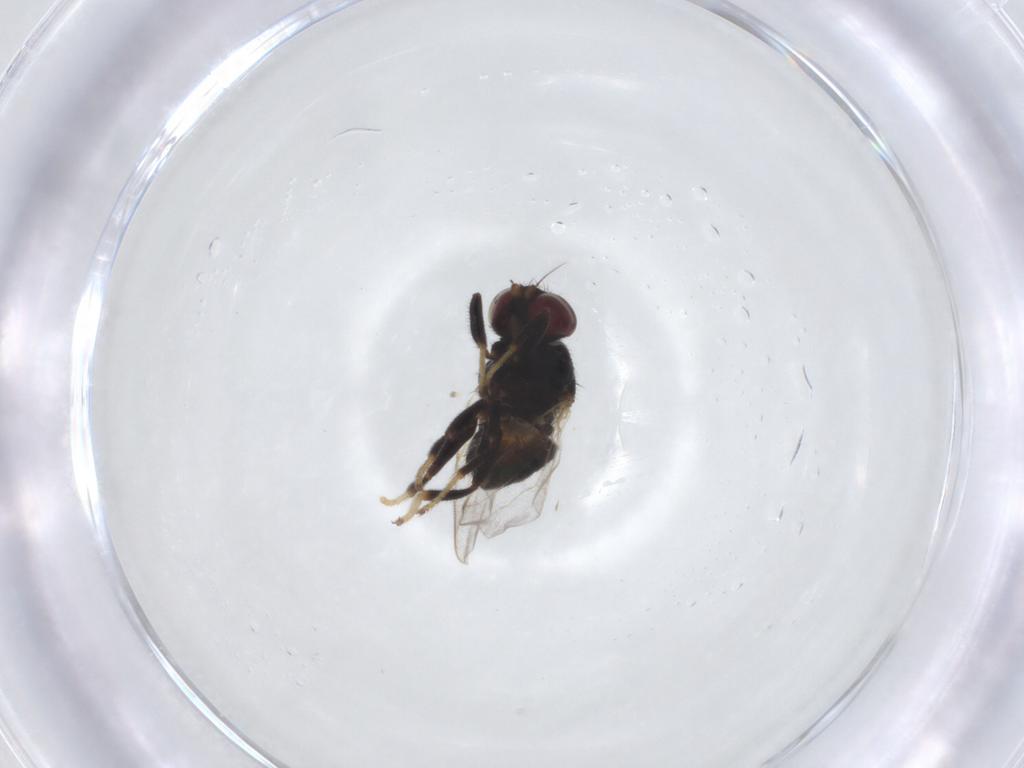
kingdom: Animalia
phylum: Arthropoda
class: Insecta
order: Diptera
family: Chloropidae
